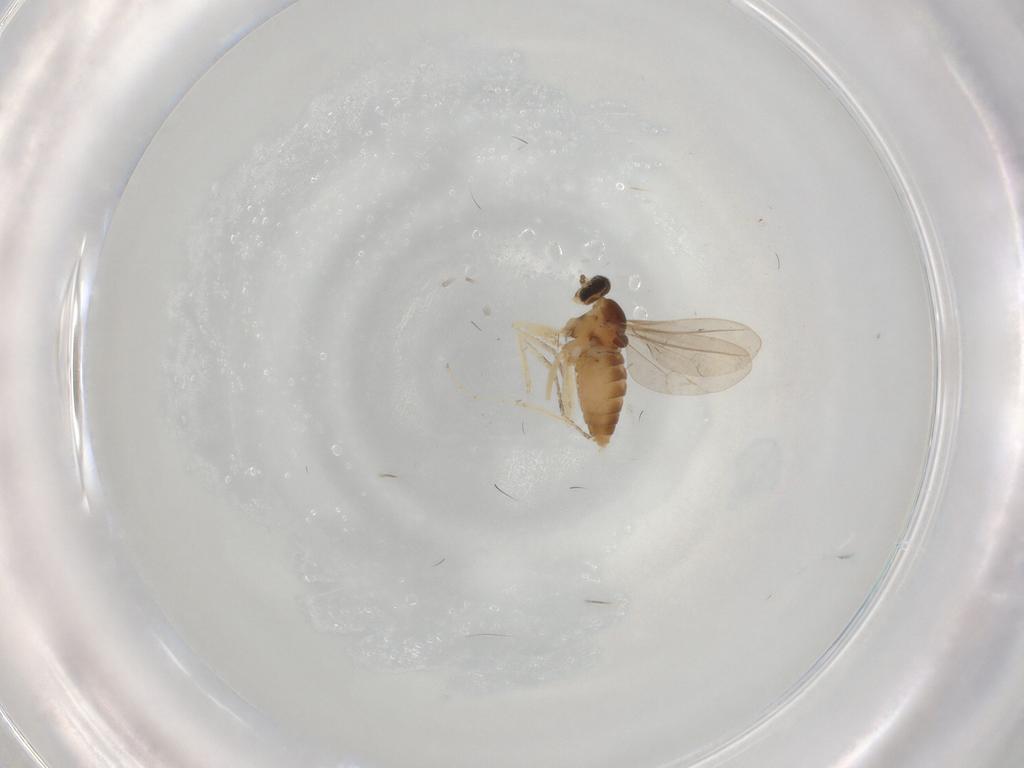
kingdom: Animalia
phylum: Arthropoda
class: Insecta
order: Diptera
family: Cecidomyiidae
